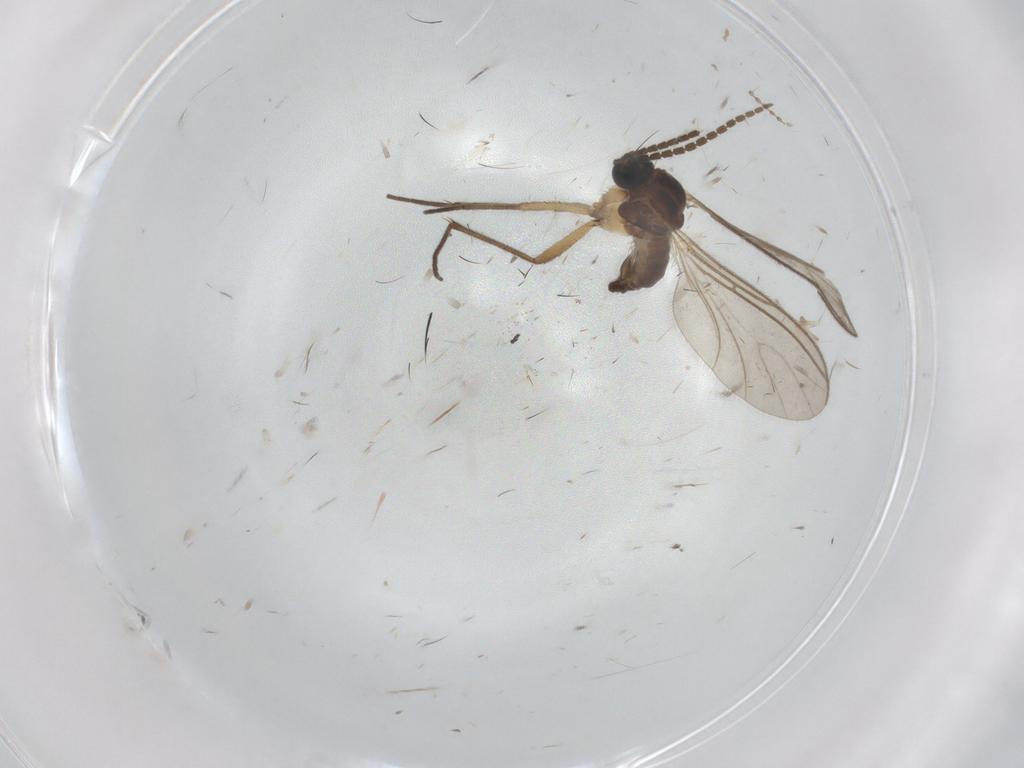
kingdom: Animalia
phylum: Arthropoda
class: Insecta
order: Diptera
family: Sciaridae
